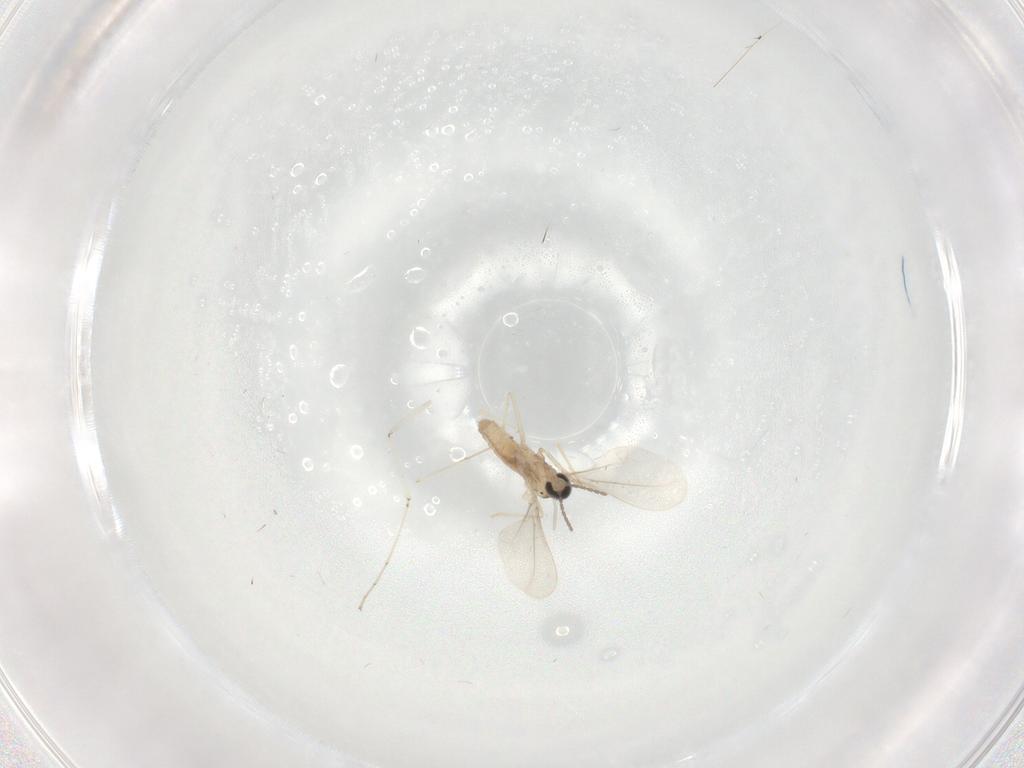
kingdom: Animalia
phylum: Arthropoda
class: Insecta
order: Diptera
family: Cecidomyiidae
